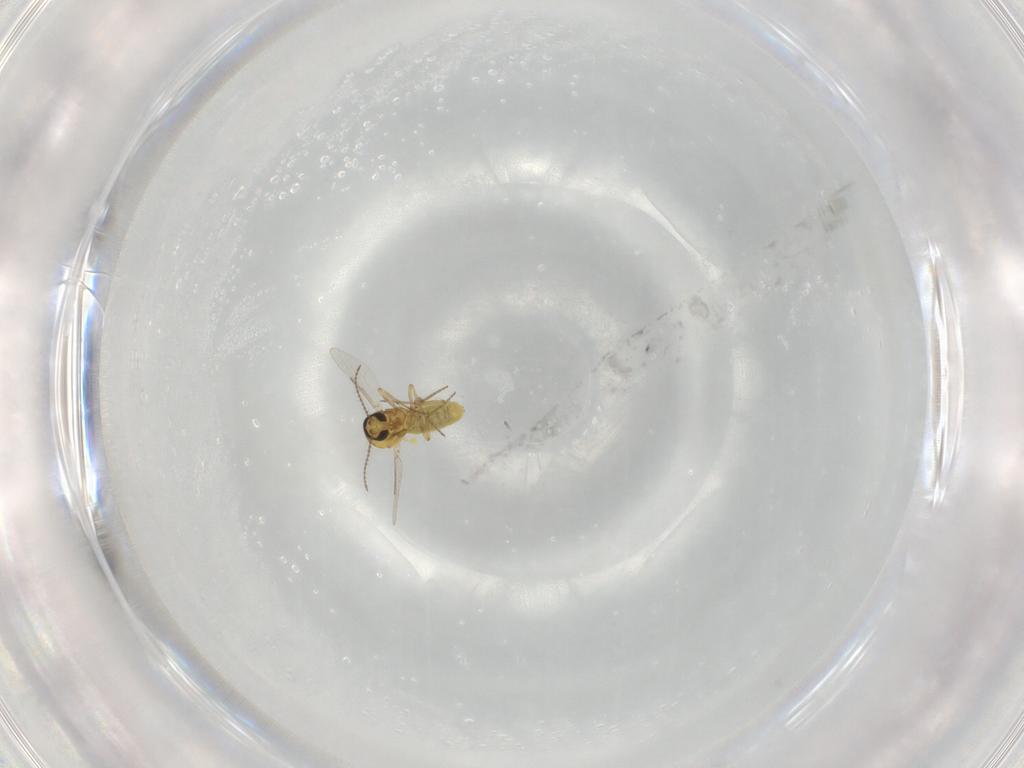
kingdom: Animalia
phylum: Arthropoda
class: Insecta
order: Diptera
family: Ceratopogonidae
